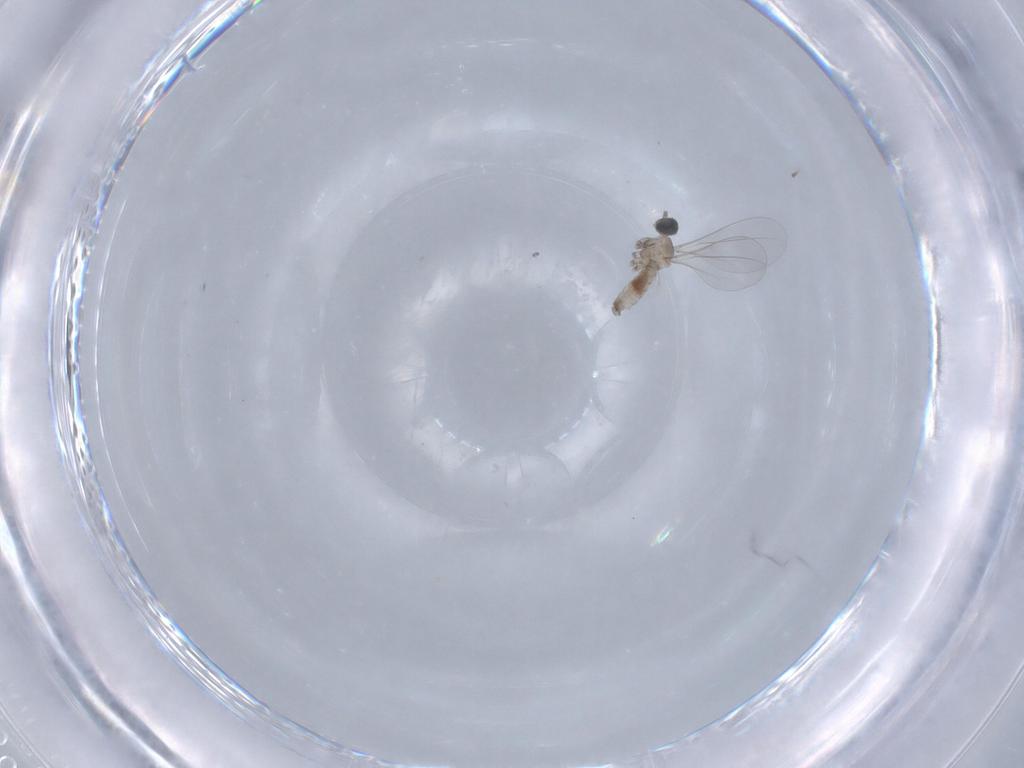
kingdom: Animalia
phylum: Arthropoda
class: Insecta
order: Diptera
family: Cecidomyiidae
